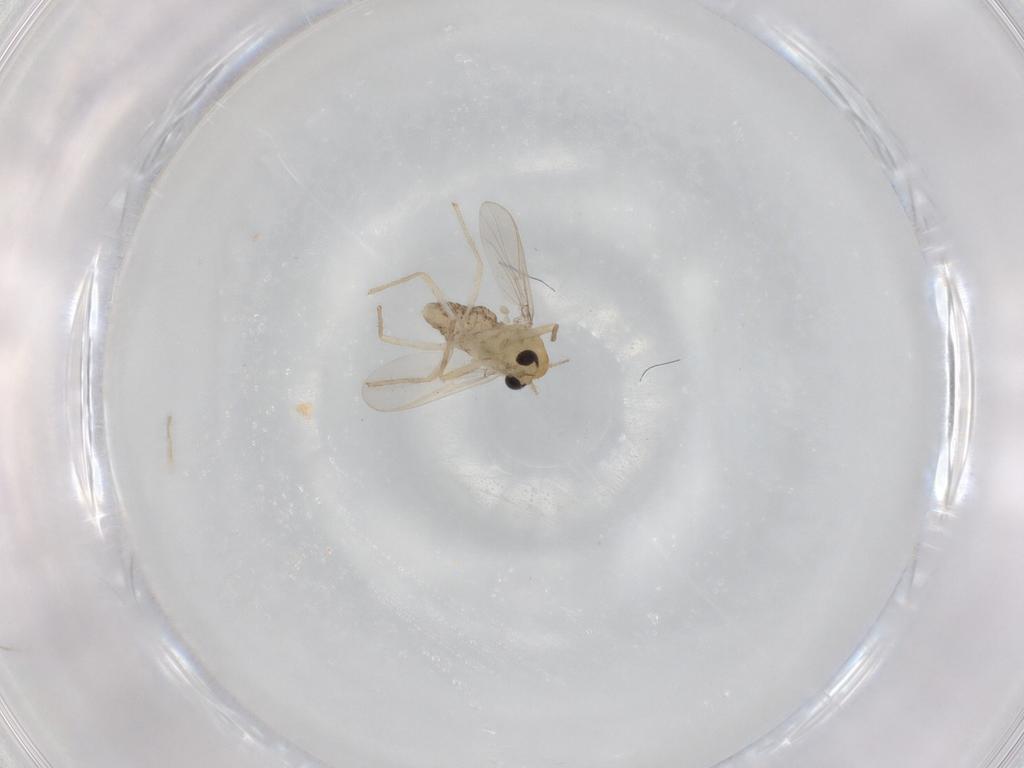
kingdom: Animalia
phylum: Arthropoda
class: Insecta
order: Diptera
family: Chironomidae
